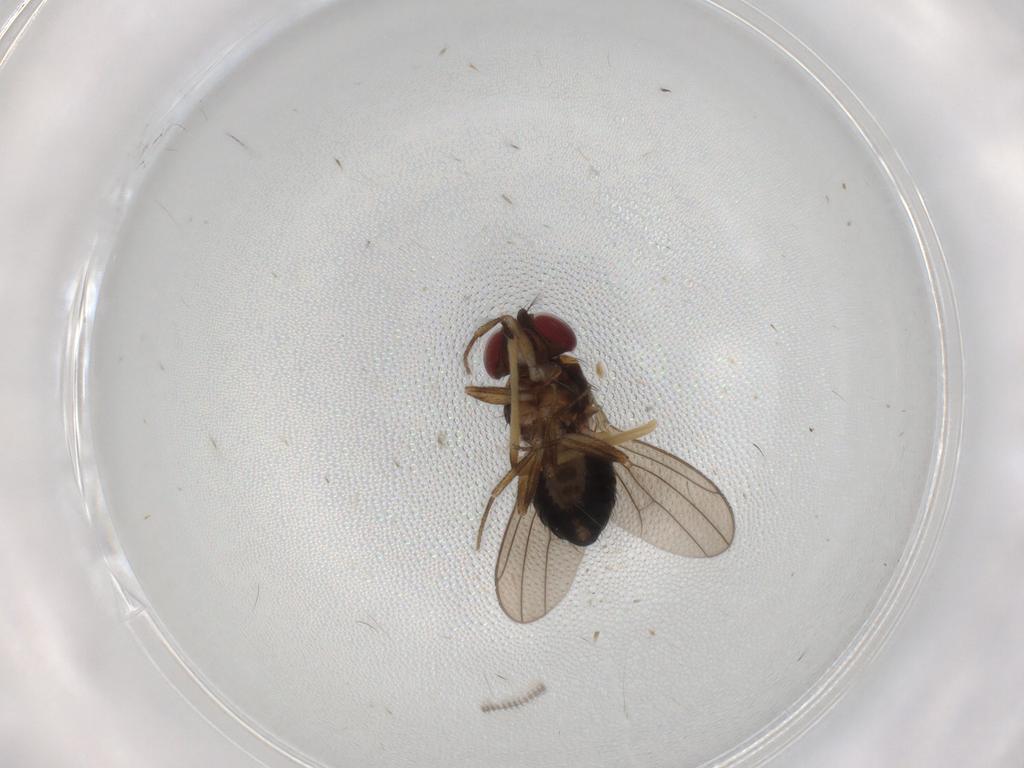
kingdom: Animalia
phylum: Arthropoda
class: Insecta
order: Diptera
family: Drosophilidae
